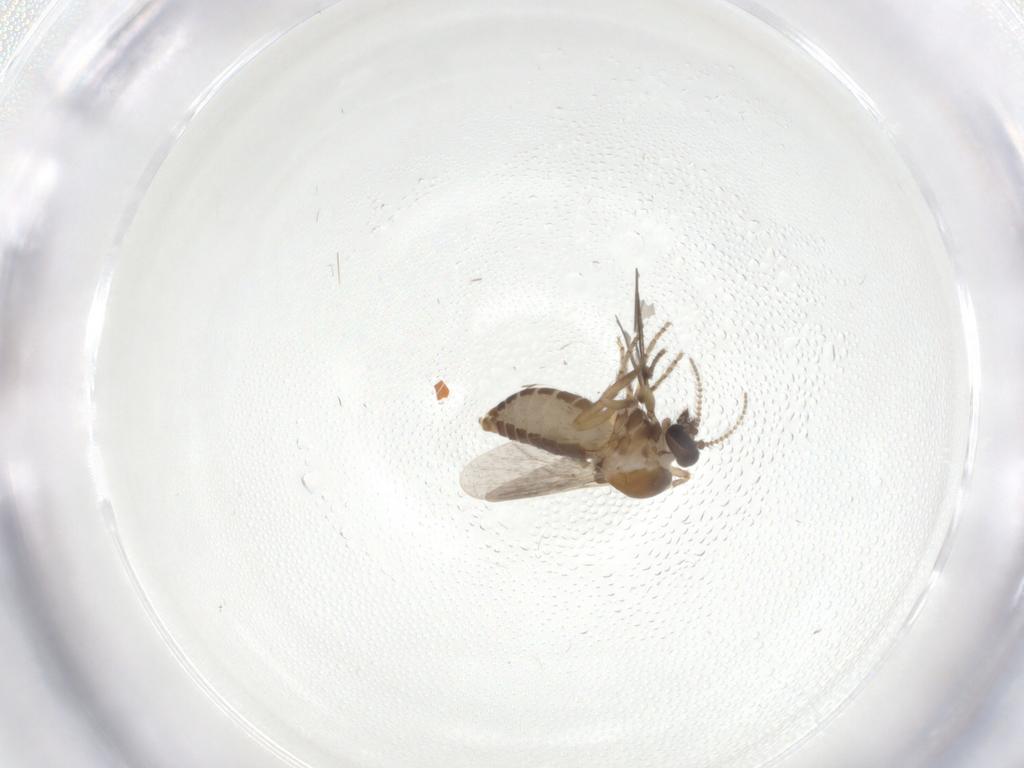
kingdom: Animalia
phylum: Arthropoda
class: Insecta
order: Diptera
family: Ceratopogonidae
